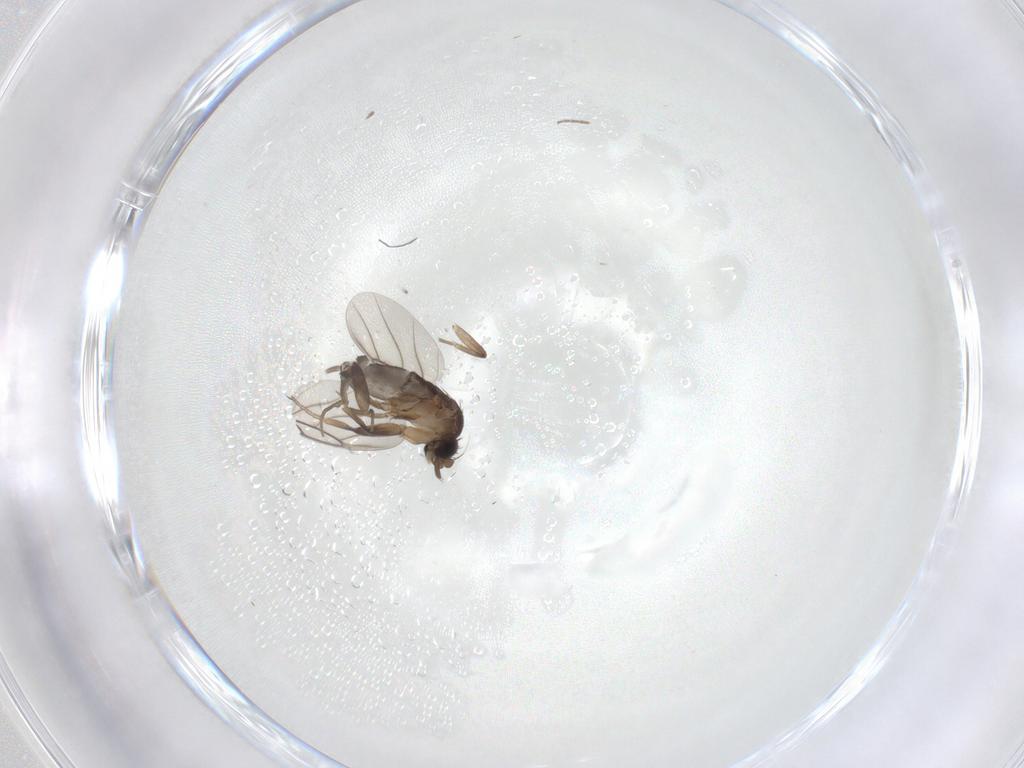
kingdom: Animalia
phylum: Arthropoda
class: Insecta
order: Diptera
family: Phoridae
